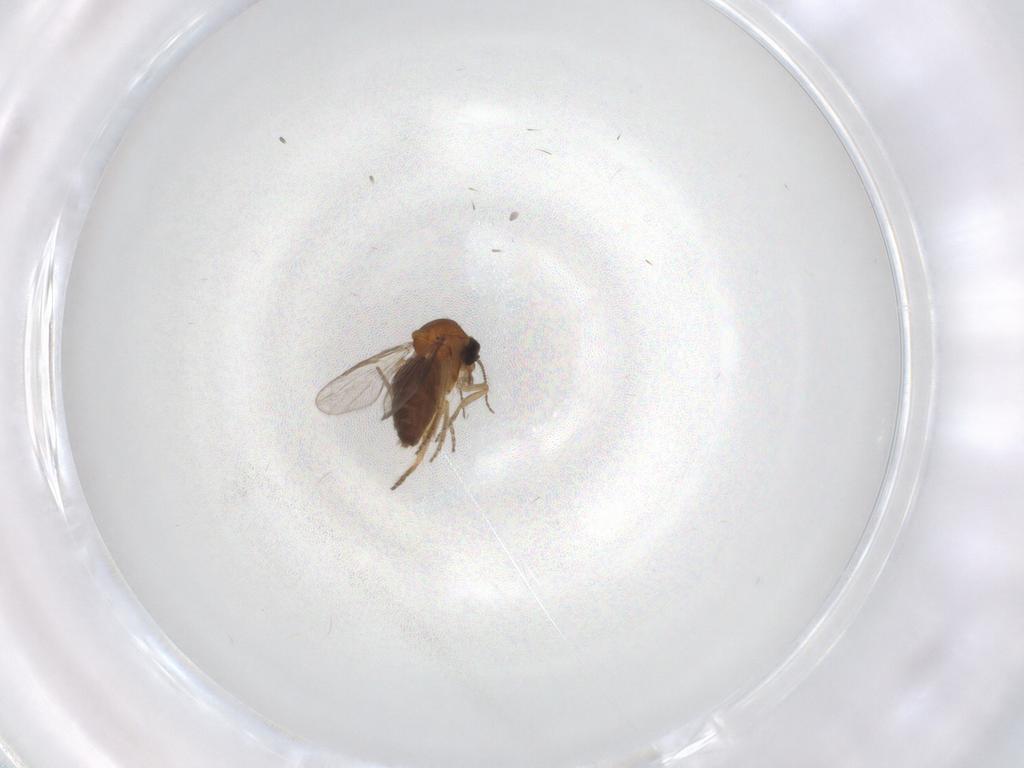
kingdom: Animalia
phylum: Arthropoda
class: Insecta
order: Diptera
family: Ceratopogonidae
